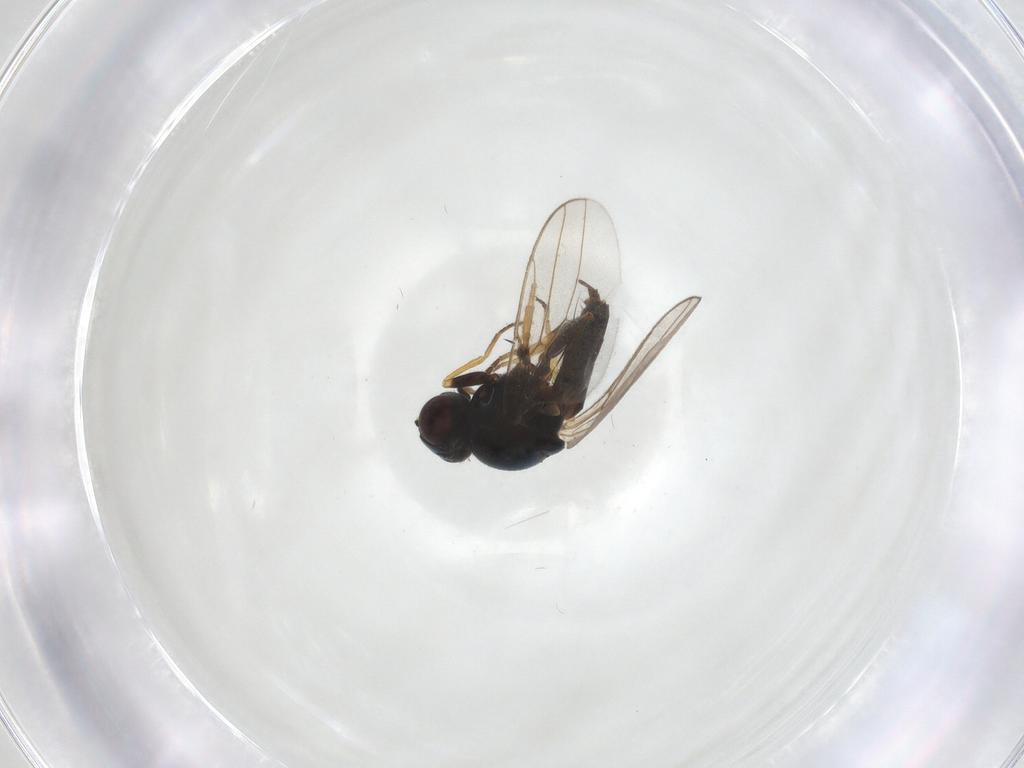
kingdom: Animalia
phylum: Arthropoda
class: Insecta
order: Diptera
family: Chloropidae
